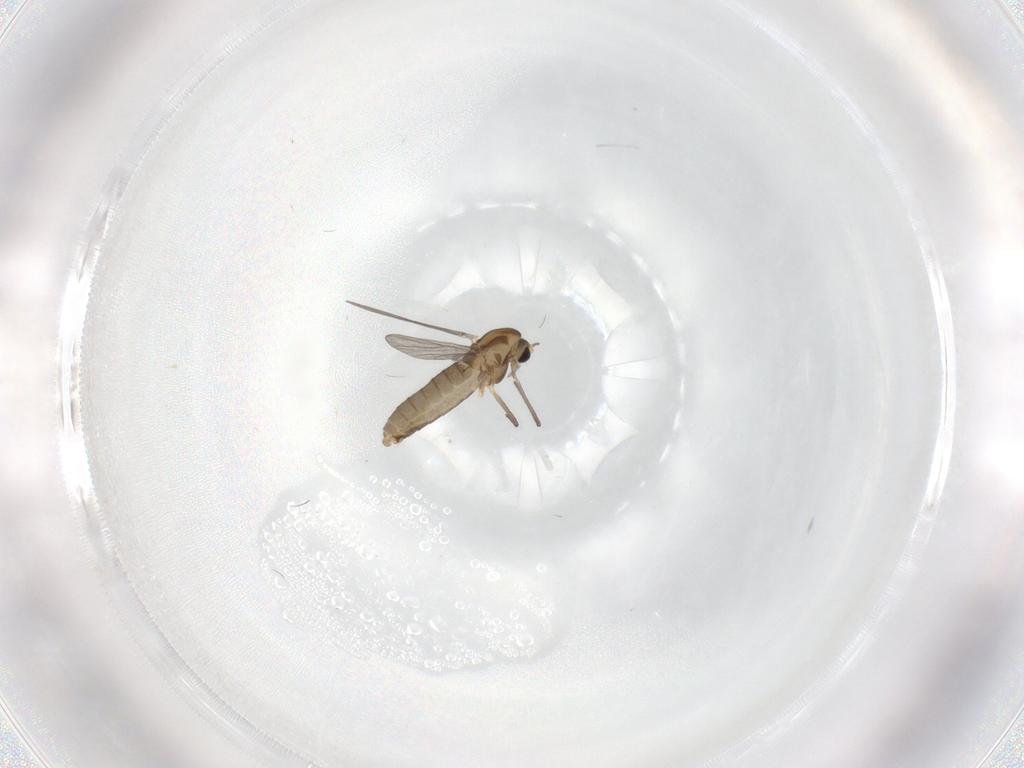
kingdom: Animalia
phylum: Arthropoda
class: Insecta
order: Diptera
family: Chironomidae
